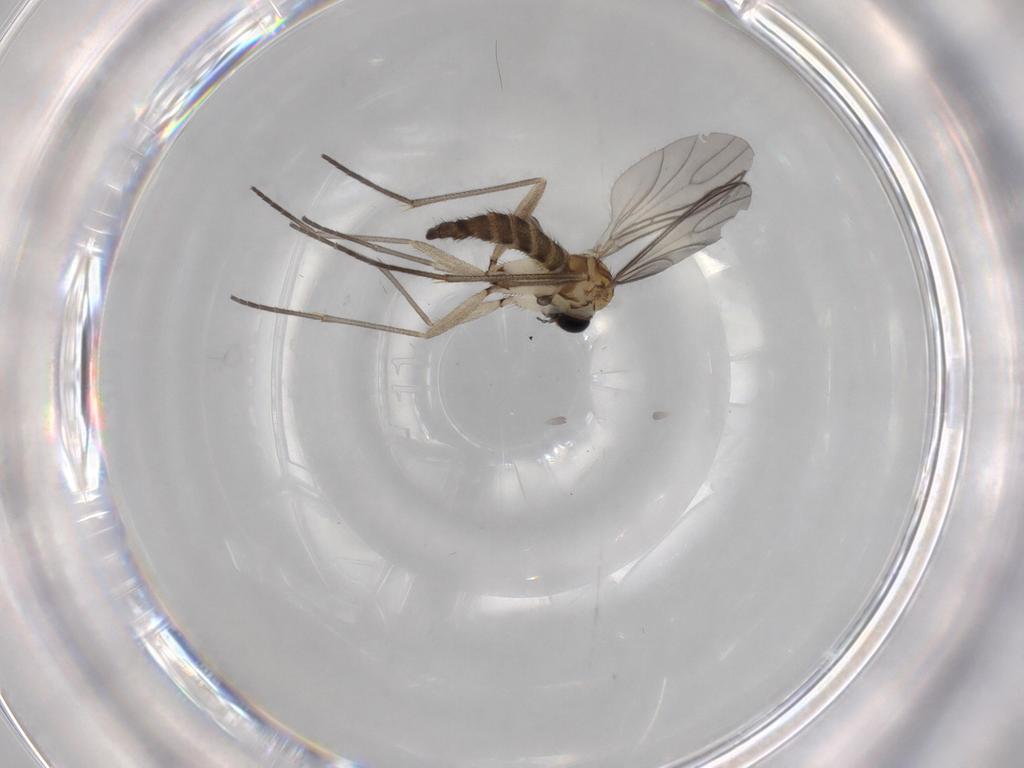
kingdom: Animalia
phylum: Arthropoda
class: Insecta
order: Diptera
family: Sciaridae
